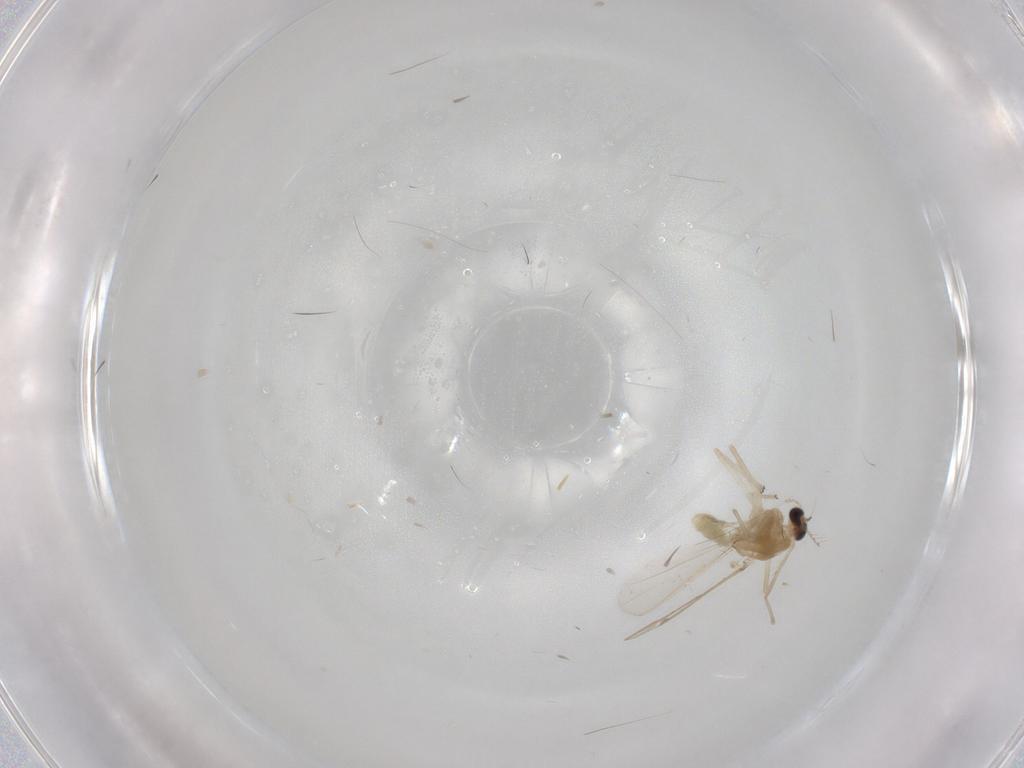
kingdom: Animalia
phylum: Arthropoda
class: Insecta
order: Diptera
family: Tachinidae
